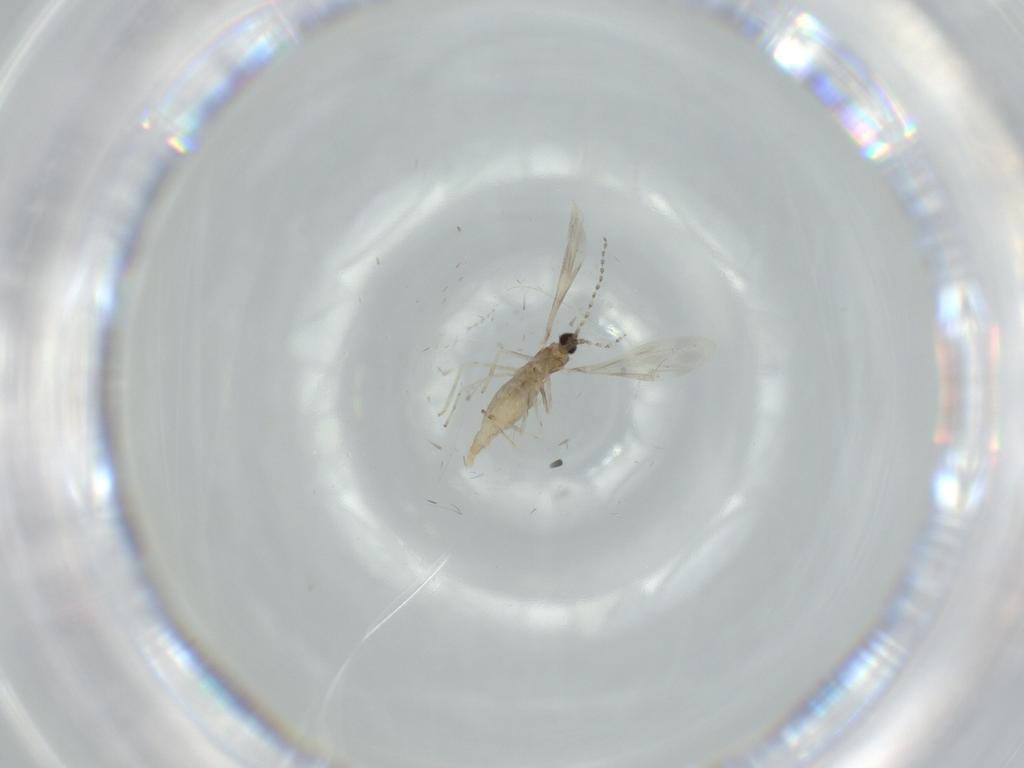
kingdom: Animalia
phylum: Arthropoda
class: Insecta
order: Diptera
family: Cecidomyiidae
